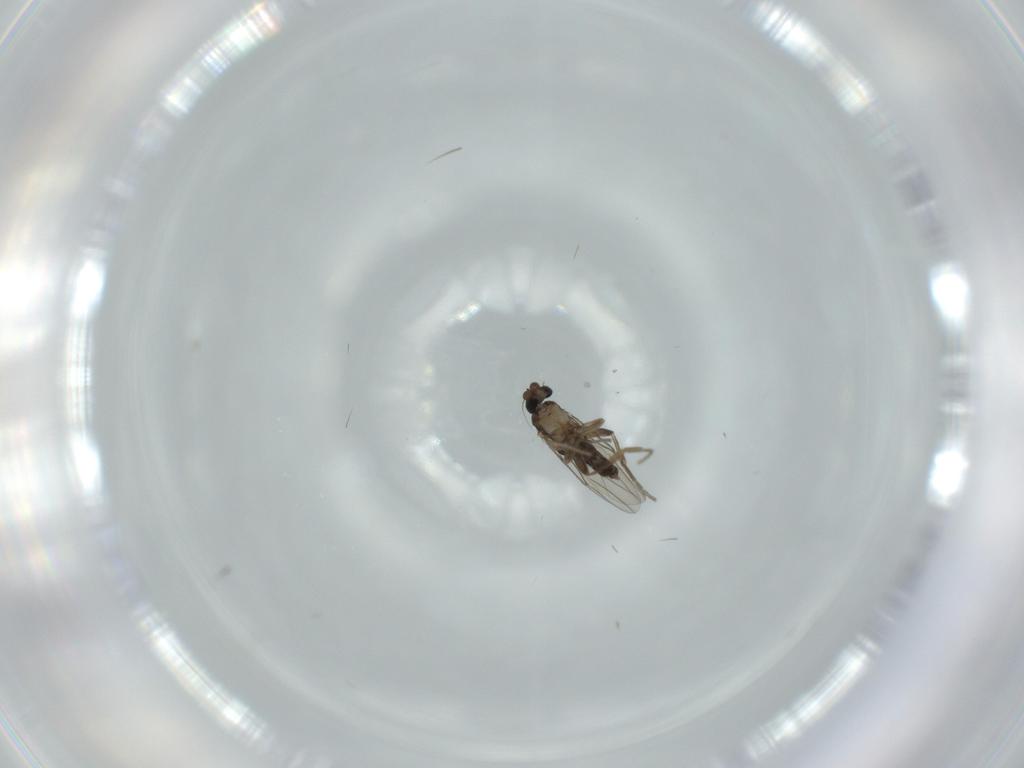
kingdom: Animalia
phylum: Arthropoda
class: Insecta
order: Diptera
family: Phoridae
